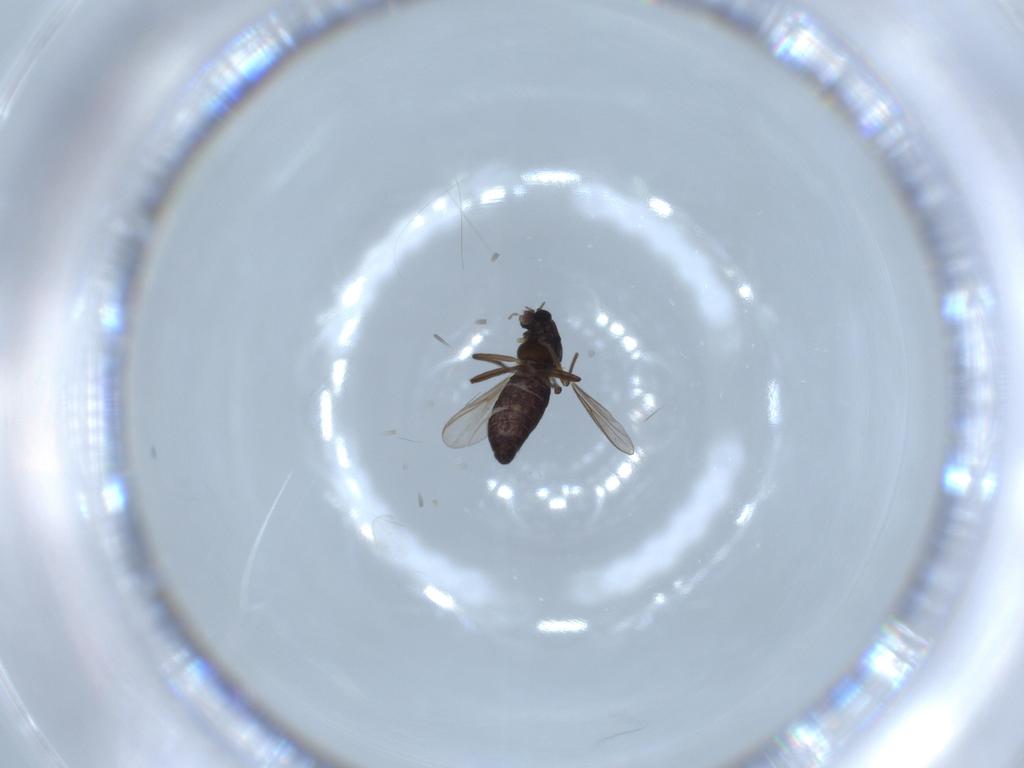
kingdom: Animalia
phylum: Arthropoda
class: Insecta
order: Diptera
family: Chironomidae
